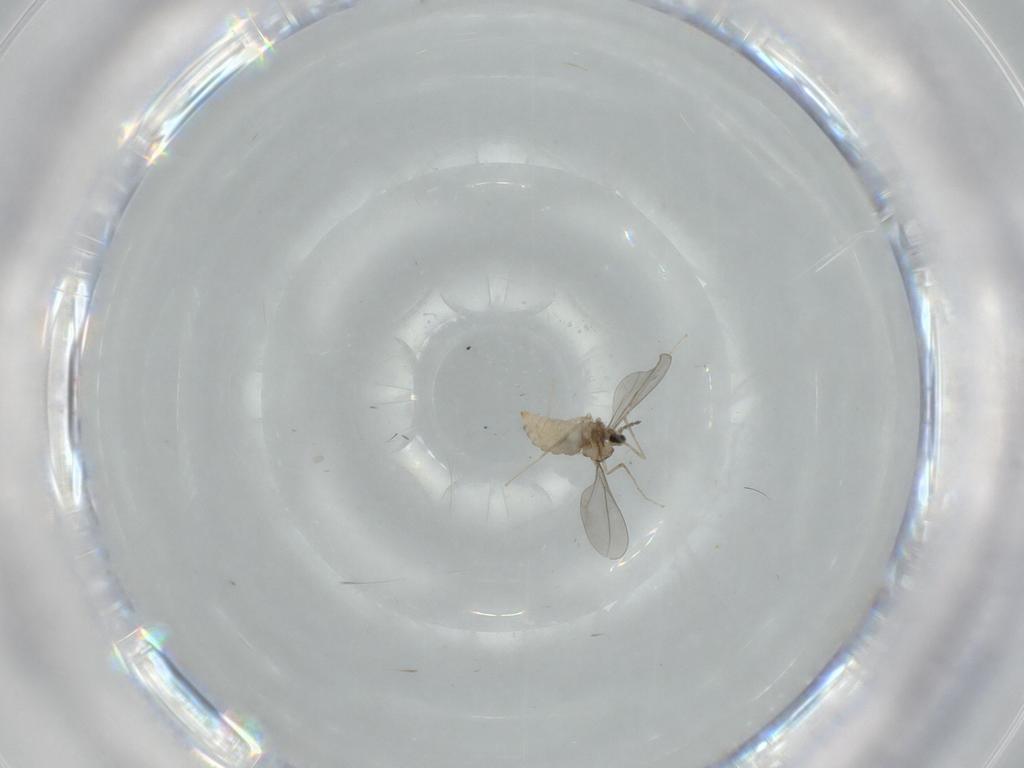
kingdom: Animalia
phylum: Arthropoda
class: Insecta
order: Diptera
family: Cecidomyiidae
